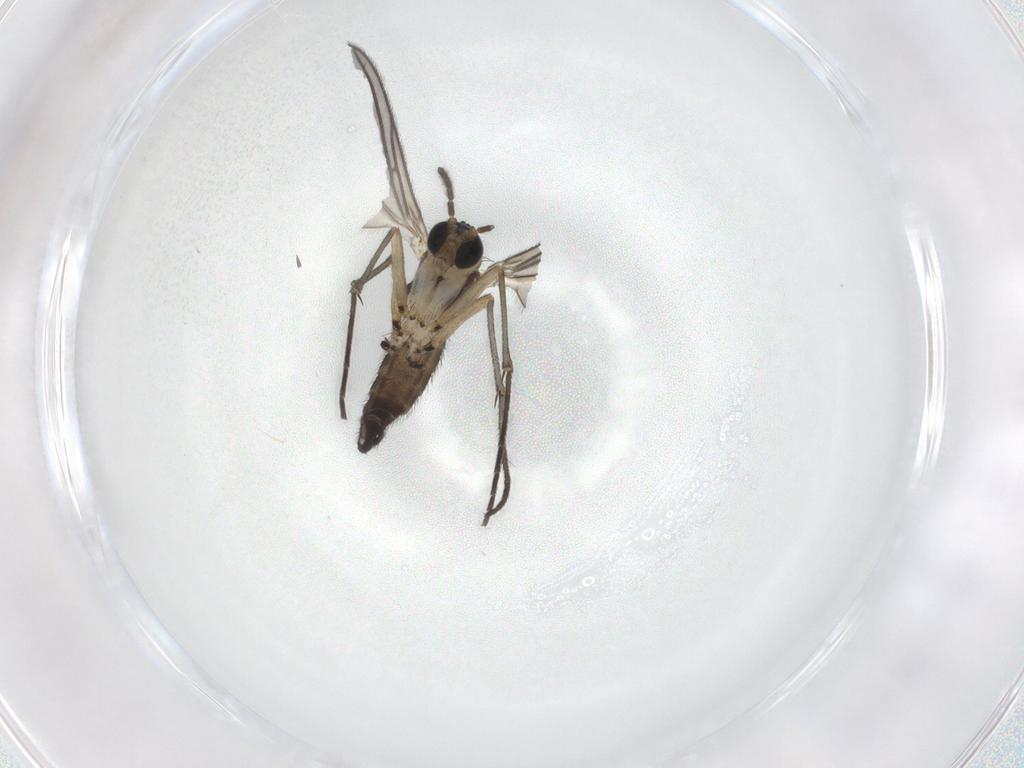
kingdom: Animalia
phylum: Arthropoda
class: Insecta
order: Diptera
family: Sciaridae
